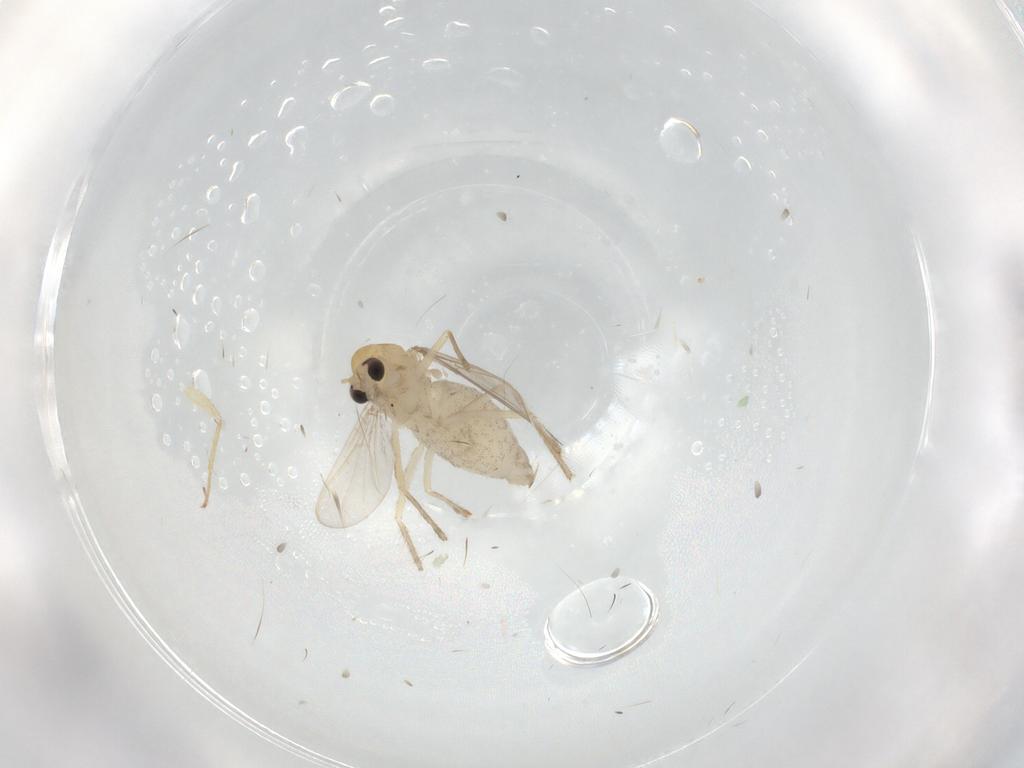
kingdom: Animalia
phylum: Arthropoda
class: Insecta
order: Diptera
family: Chironomidae
